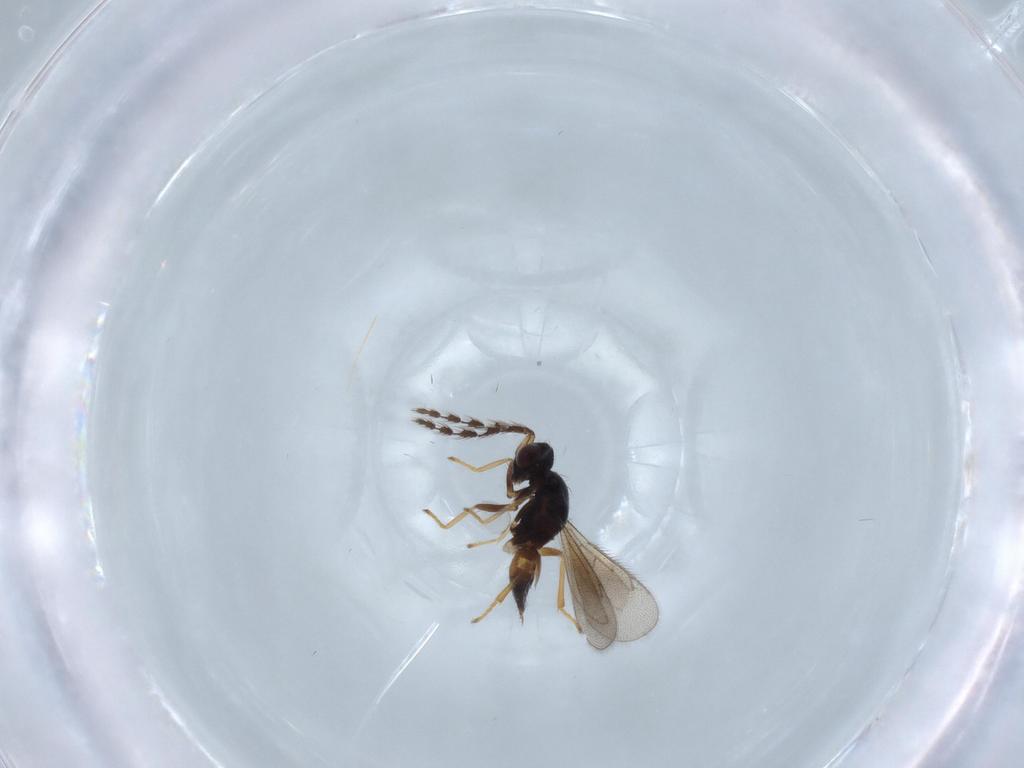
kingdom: Animalia
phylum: Arthropoda
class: Insecta
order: Hymenoptera
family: Eulophidae
